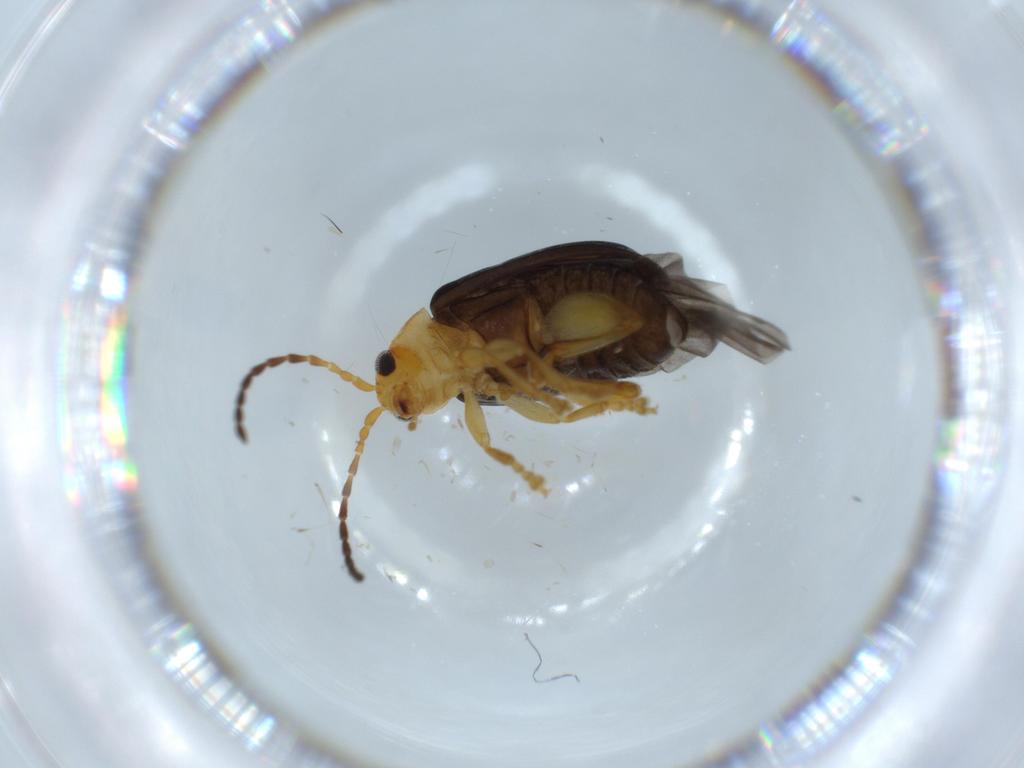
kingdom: Animalia
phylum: Arthropoda
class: Insecta
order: Coleoptera
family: Chrysomelidae
